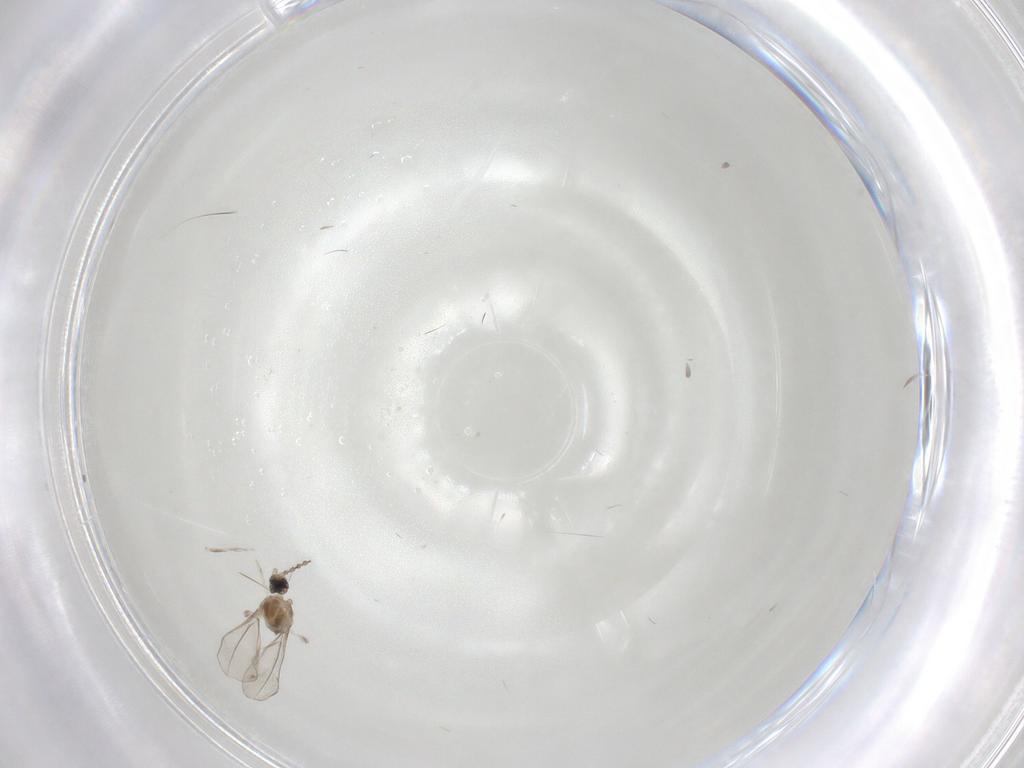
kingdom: Animalia
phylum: Arthropoda
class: Insecta
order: Diptera
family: Cecidomyiidae
